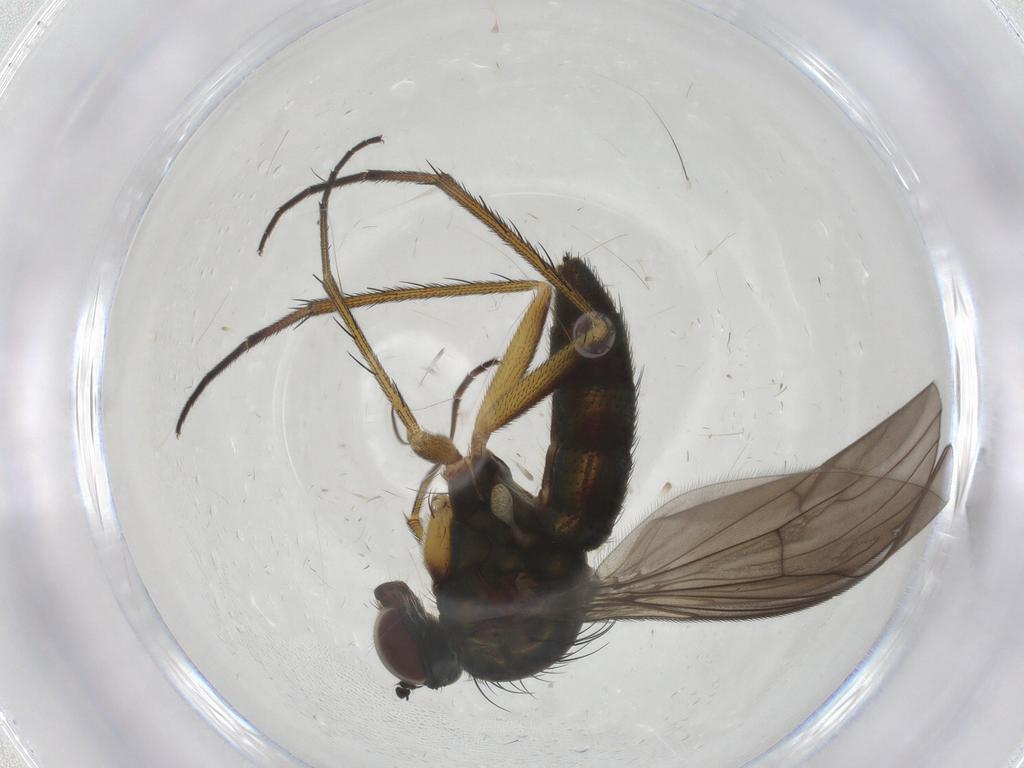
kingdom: Animalia
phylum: Arthropoda
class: Insecta
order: Diptera
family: Dolichopodidae
